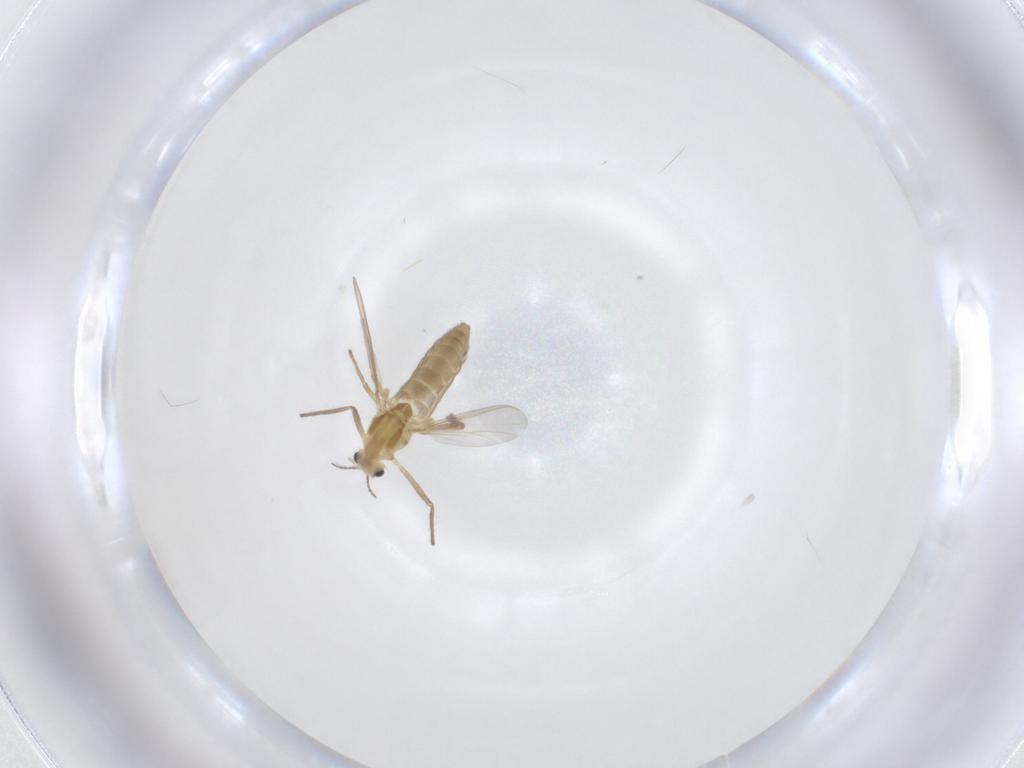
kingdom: Animalia
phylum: Arthropoda
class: Insecta
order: Diptera
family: Chironomidae
